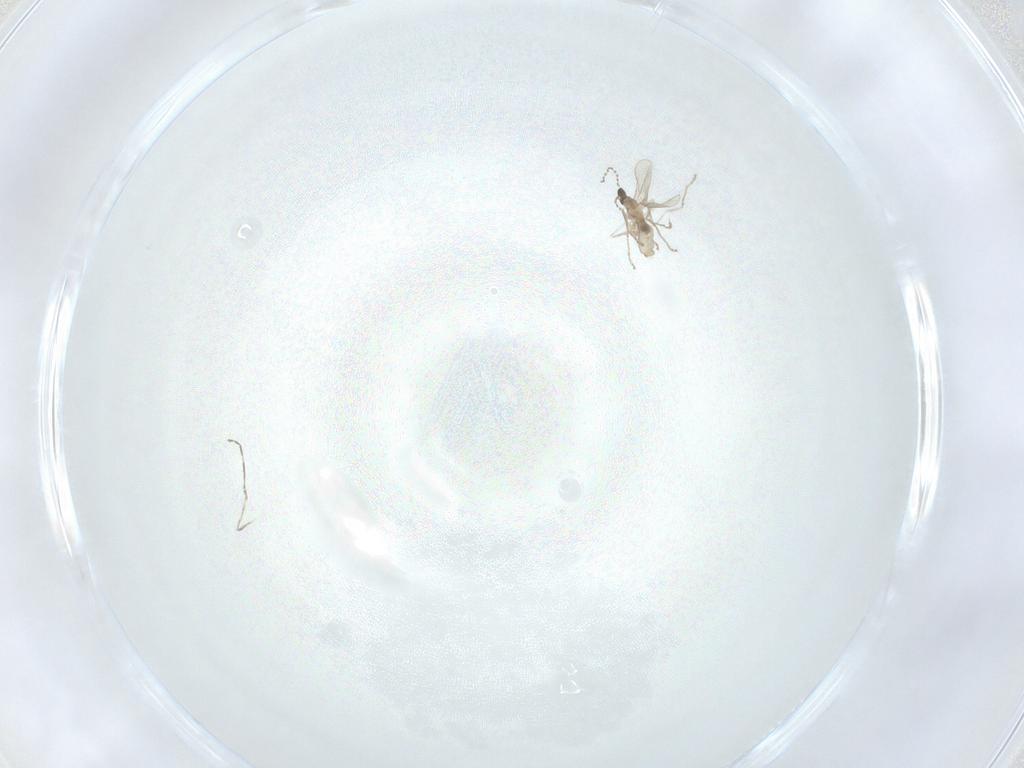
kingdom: Animalia
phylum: Arthropoda
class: Insecta
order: Diptera
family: Cecidomyiidae
